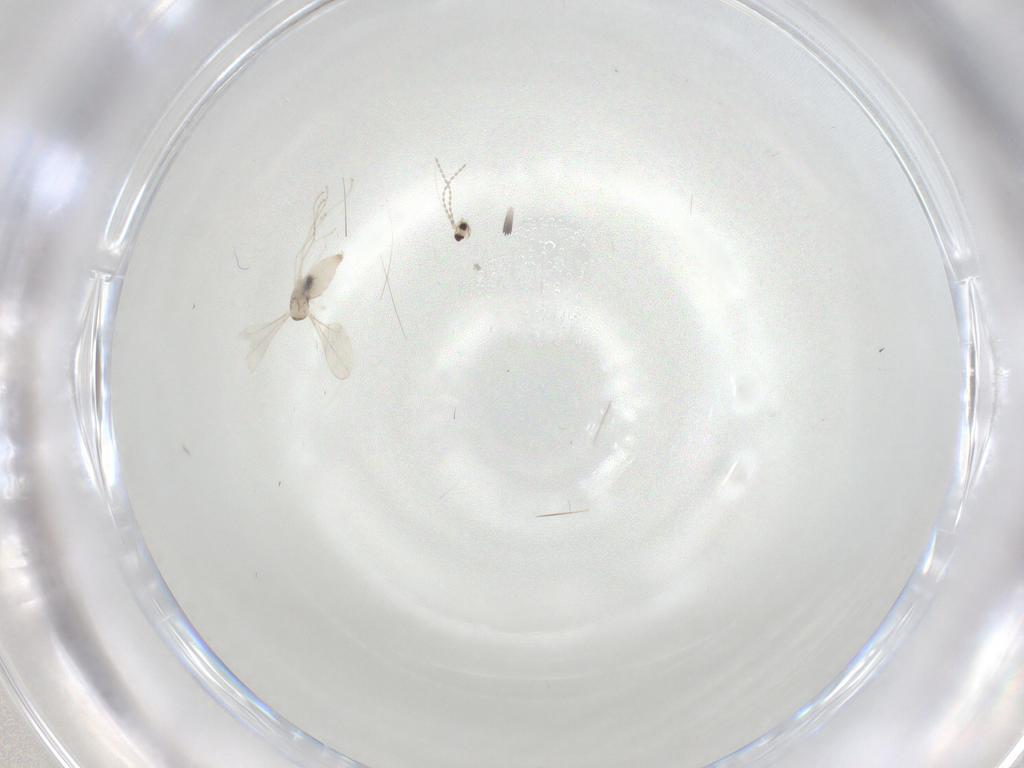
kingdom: Animalia
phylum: Arthropoda
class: Insecta
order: Diptera
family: Cecidomyiidae
